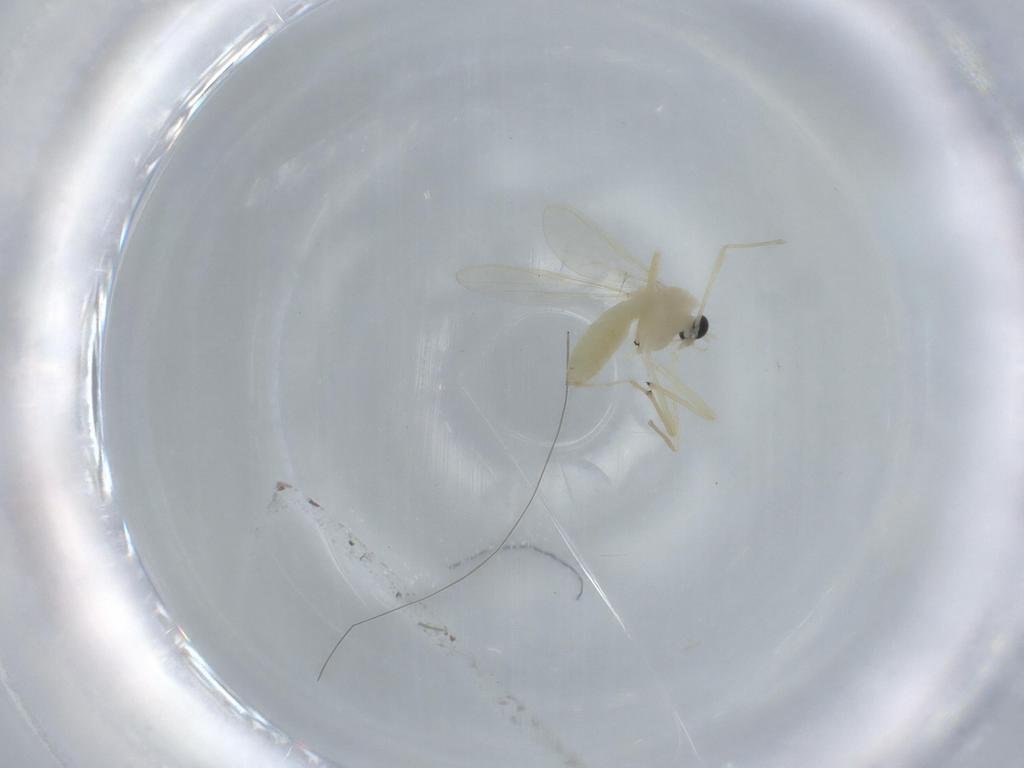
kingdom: Animalia
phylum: Arthropoda
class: Insecta
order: Diptera
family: Chironomidae
